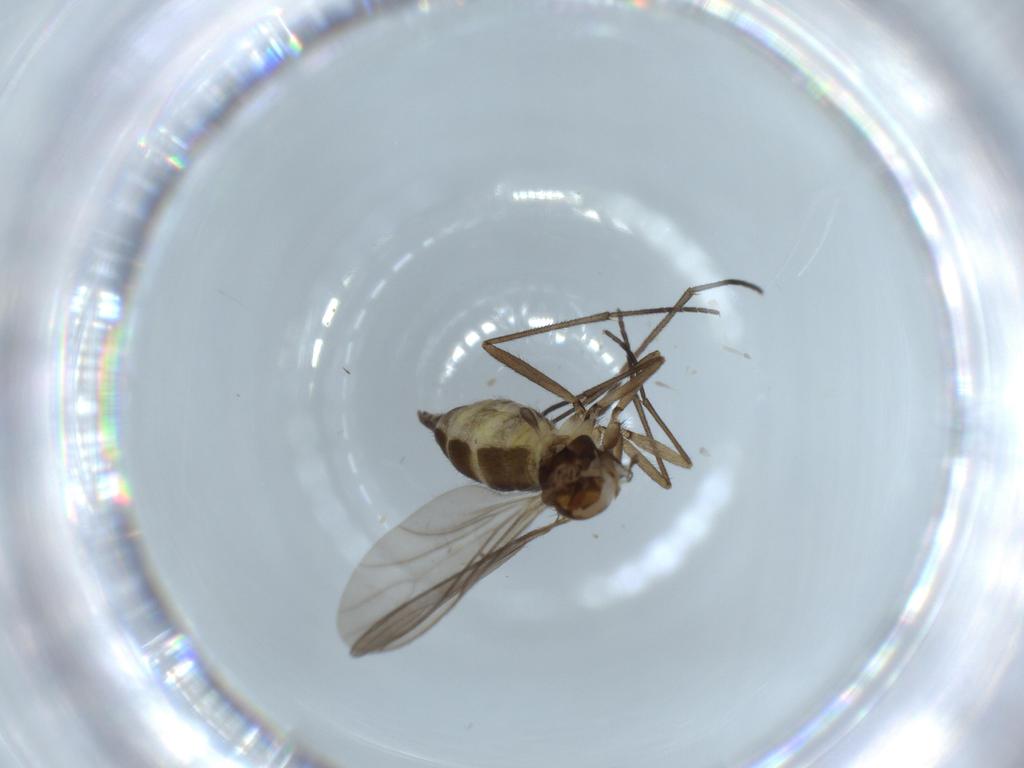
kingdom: Animalia
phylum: Arthropoda
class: Insecta
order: Diptera
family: Sciaridae
